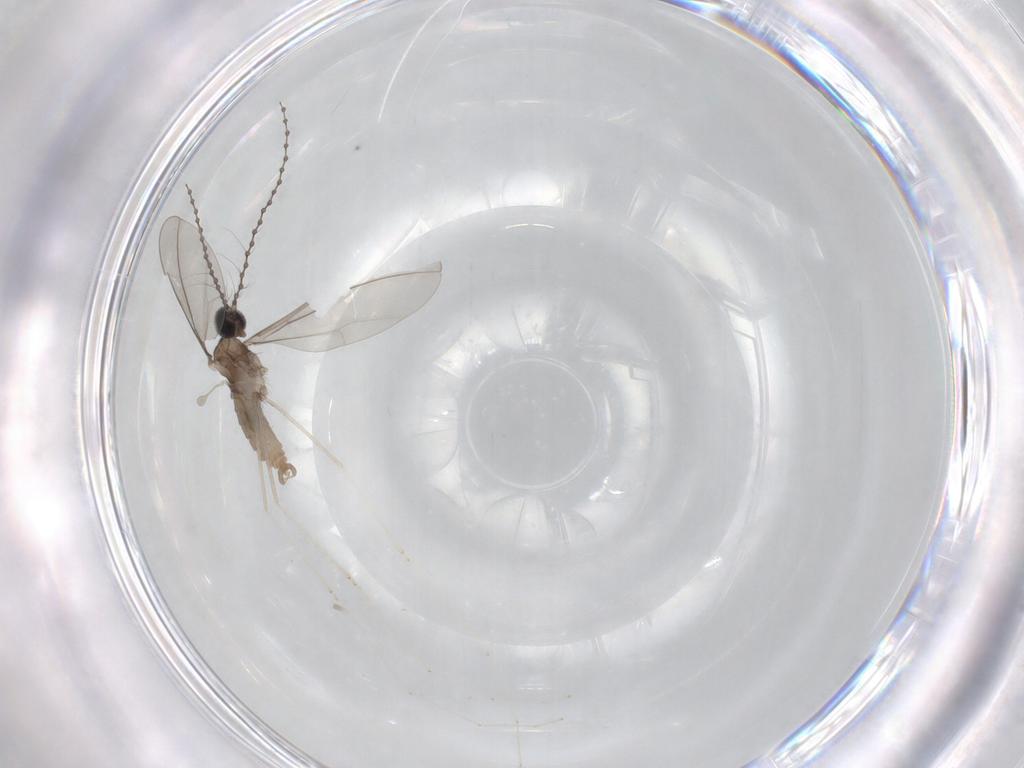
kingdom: Animalia
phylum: Arthropoda
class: Insecta
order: Diptera
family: Cecidomyiidae
